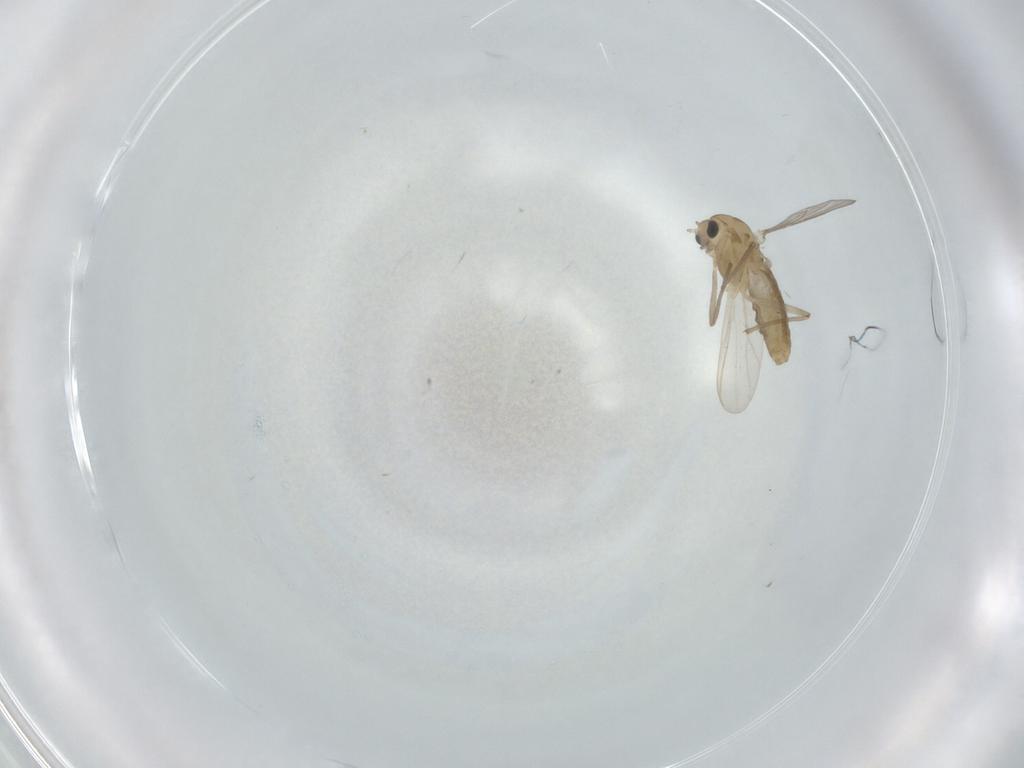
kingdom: Animalia
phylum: Arthropoda
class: Insecta
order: Diptera
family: Chironomidae
